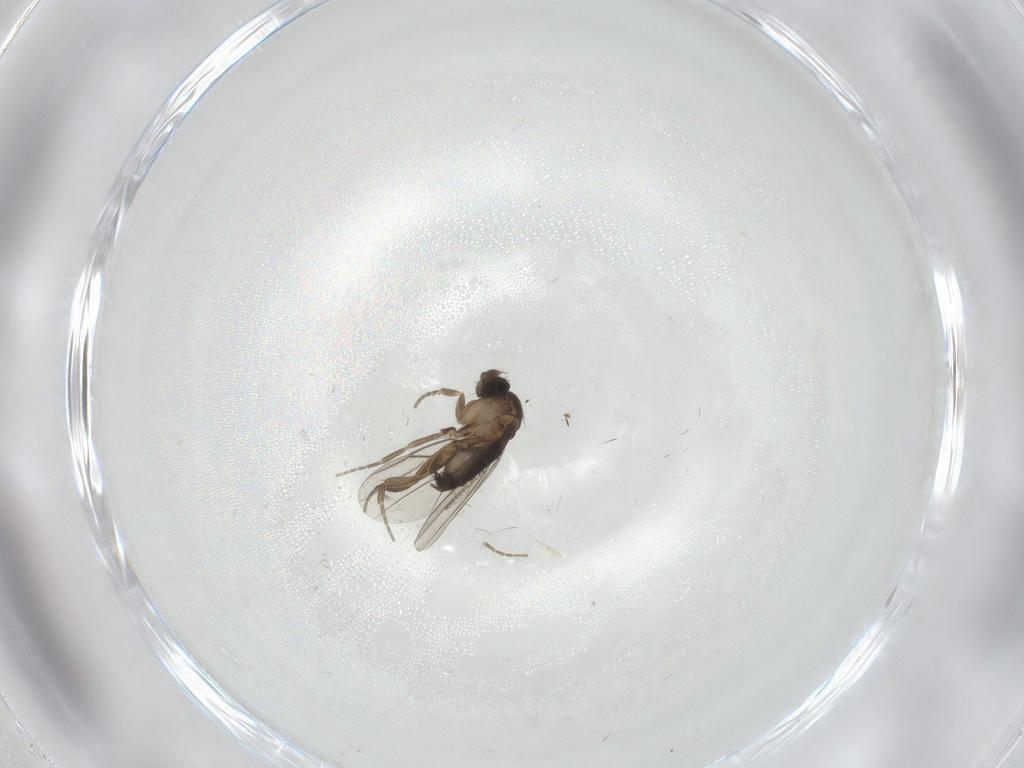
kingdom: Animalia
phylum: Arthropoda
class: Insecta
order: Diptera
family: Phoridae
